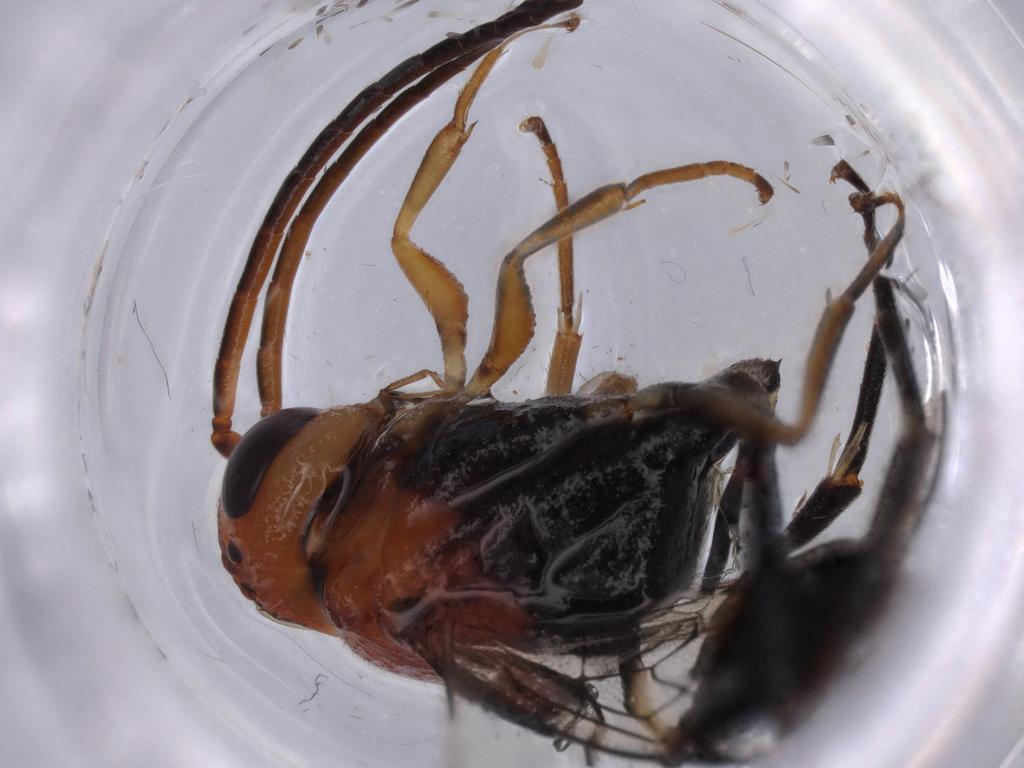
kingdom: Animalia
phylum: Arthropoda
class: Insecta
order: Hymenoptera
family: Evaniidae
